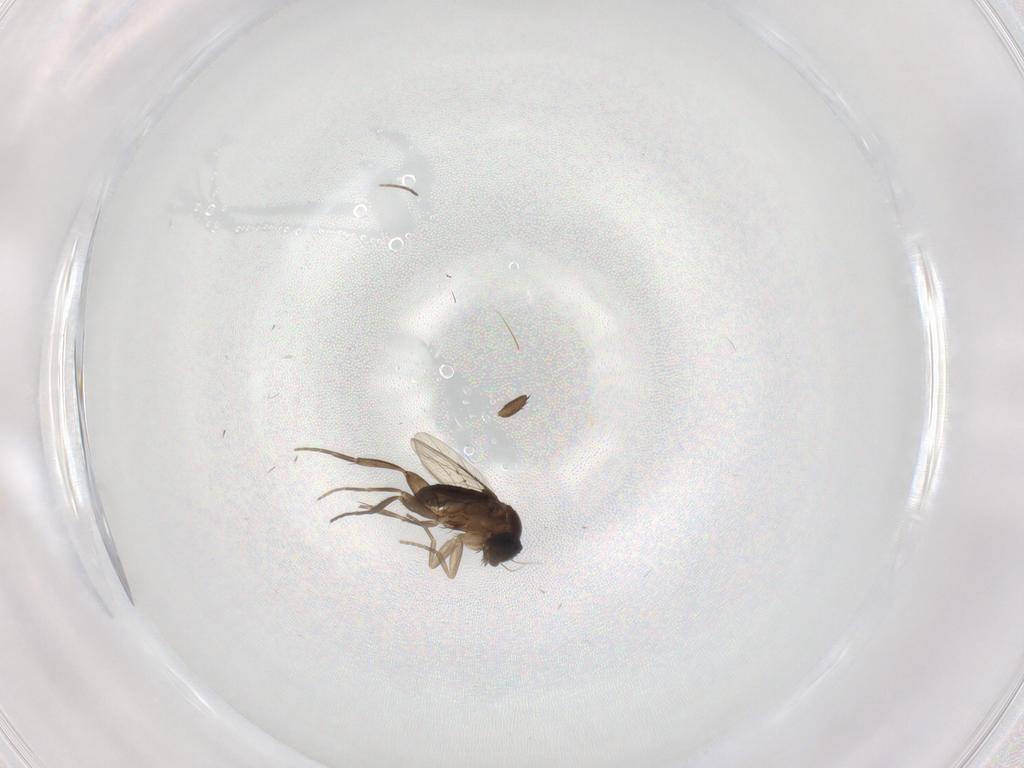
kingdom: Animalia
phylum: Arthropoda
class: Insecta
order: Diptera
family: Phoridae
